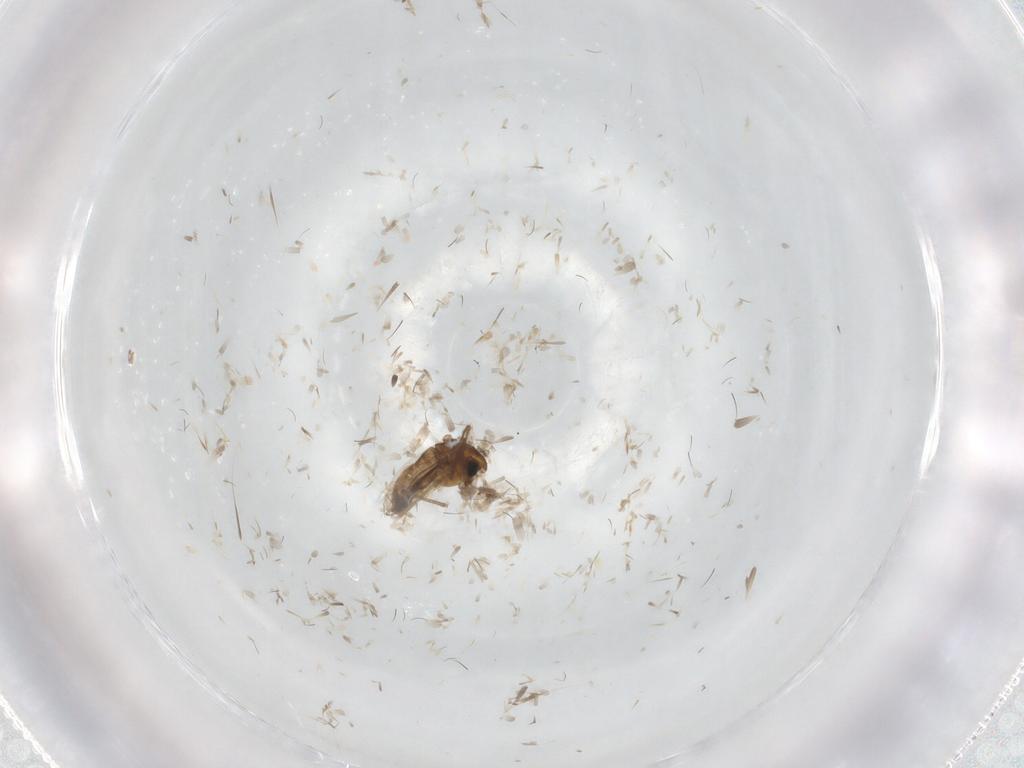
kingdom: Animalia
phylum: Arthropoda
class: Insecta
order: Diptera
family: Chironomidae
